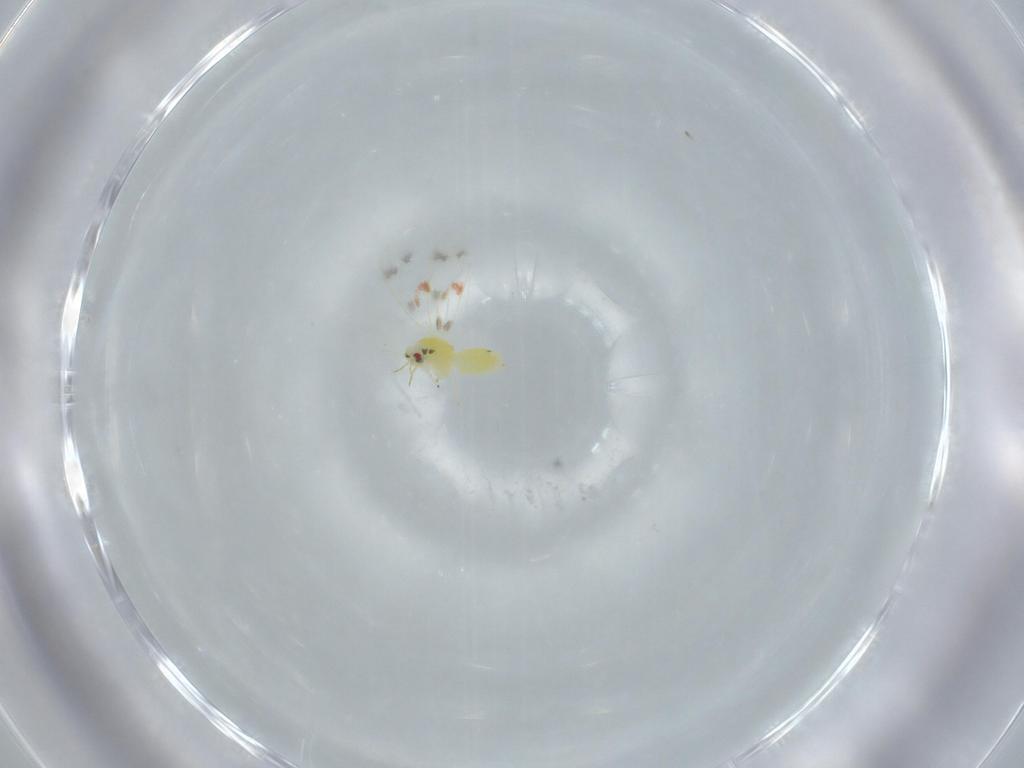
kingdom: Animalia
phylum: Arthropoda
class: Insecta
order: Hemiptera
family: Aleyrodidae
